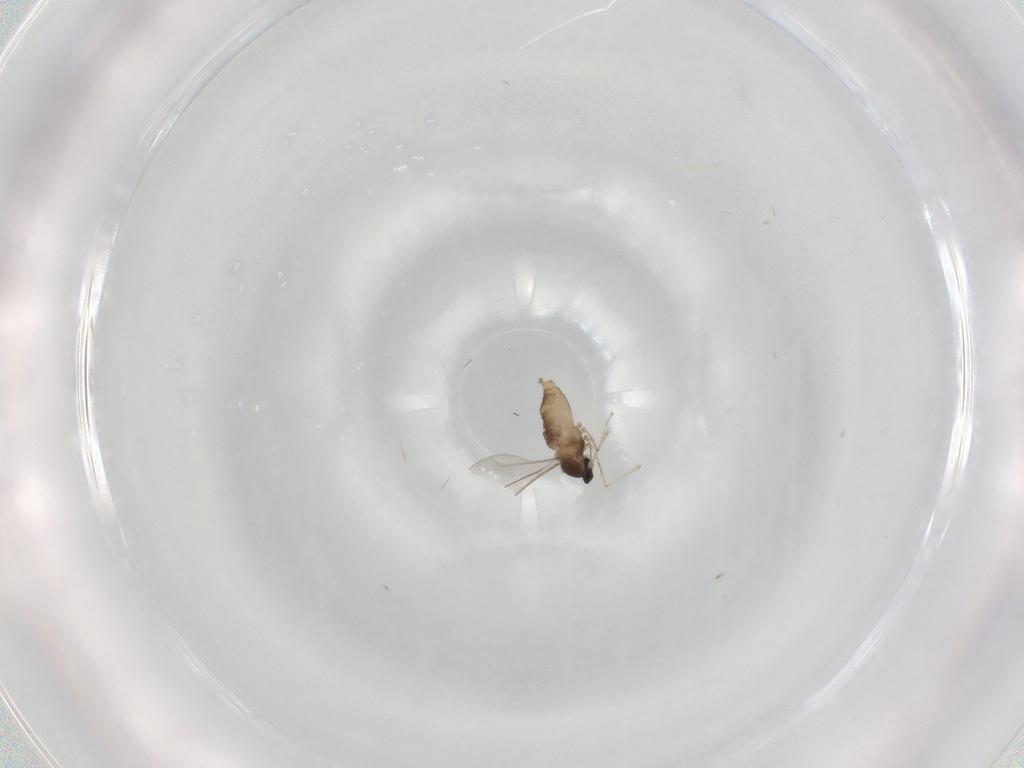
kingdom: Animalia
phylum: Arthropoda
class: Insecta
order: Diptera
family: Cecidomyiidae
